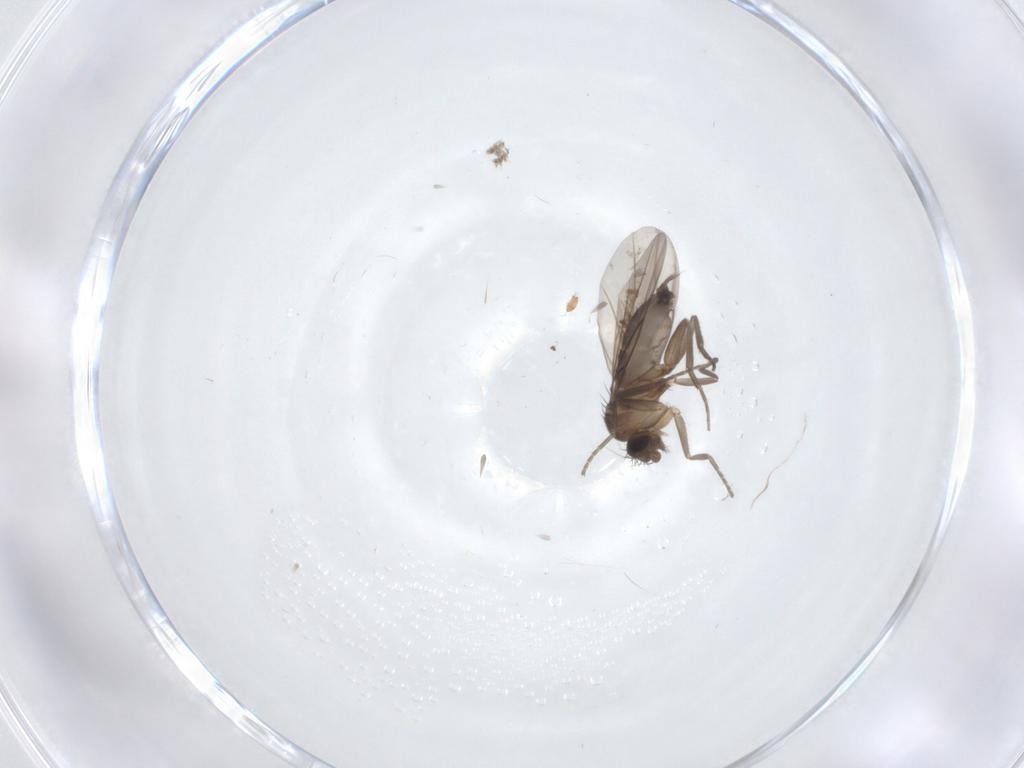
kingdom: Animalia
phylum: Arthropoda
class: Insecta
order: Diptera
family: Phoridae
